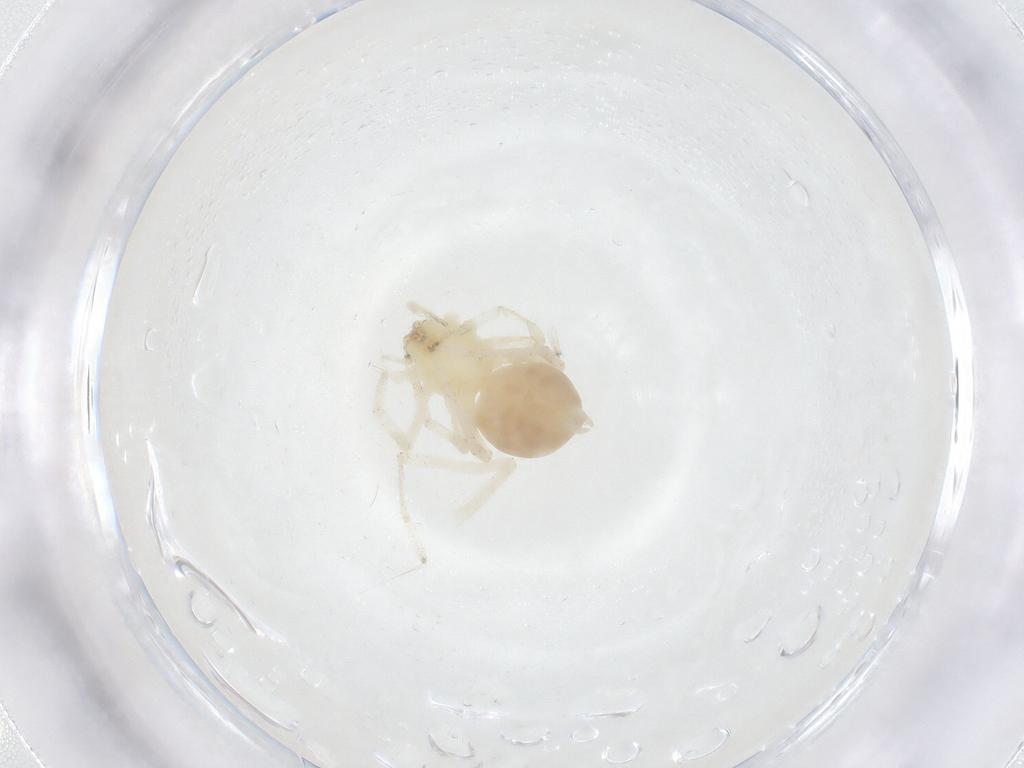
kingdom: Animalia
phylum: Arthropoda
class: Arachnida
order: Araneae
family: Anyphaenidae
